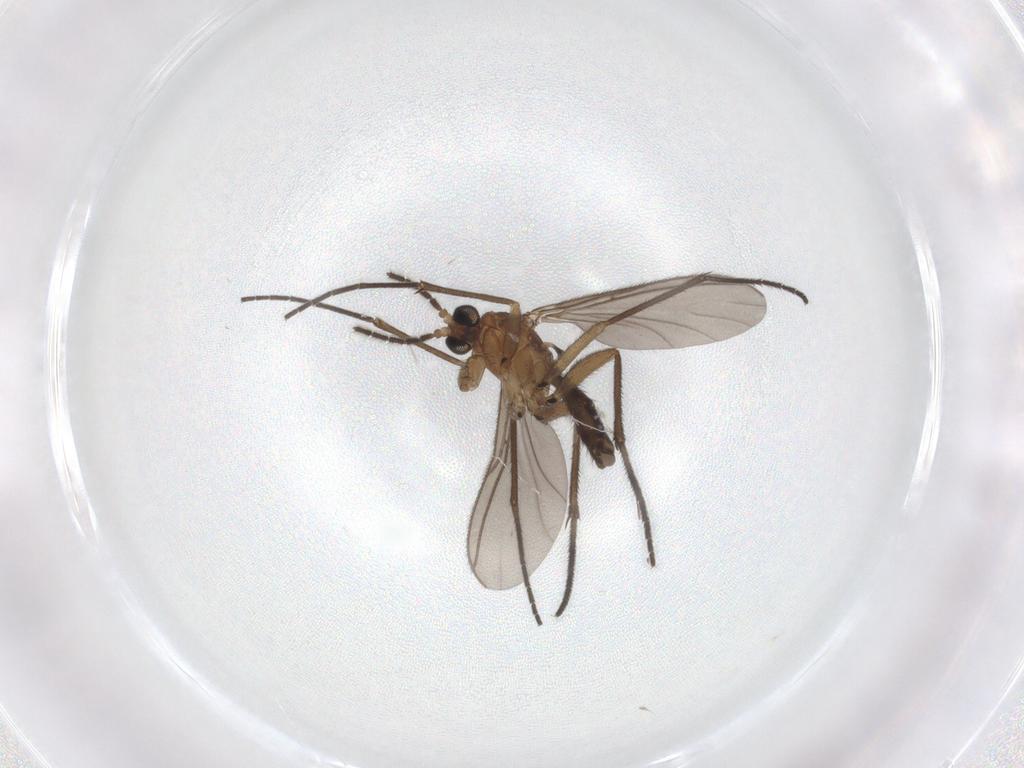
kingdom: Animalia
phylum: Arthropoda
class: Insecta
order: Diptera
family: Sciaridae
